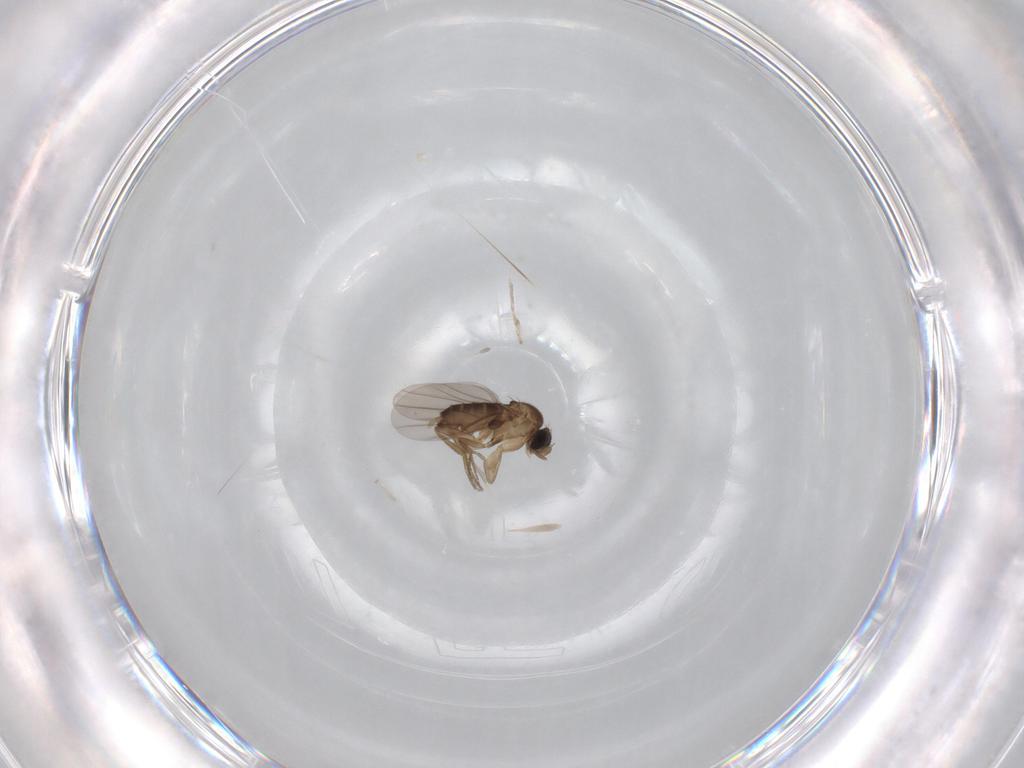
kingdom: Animalia
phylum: Arthropoda
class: Insecta
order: Diptera
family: Phoridae
